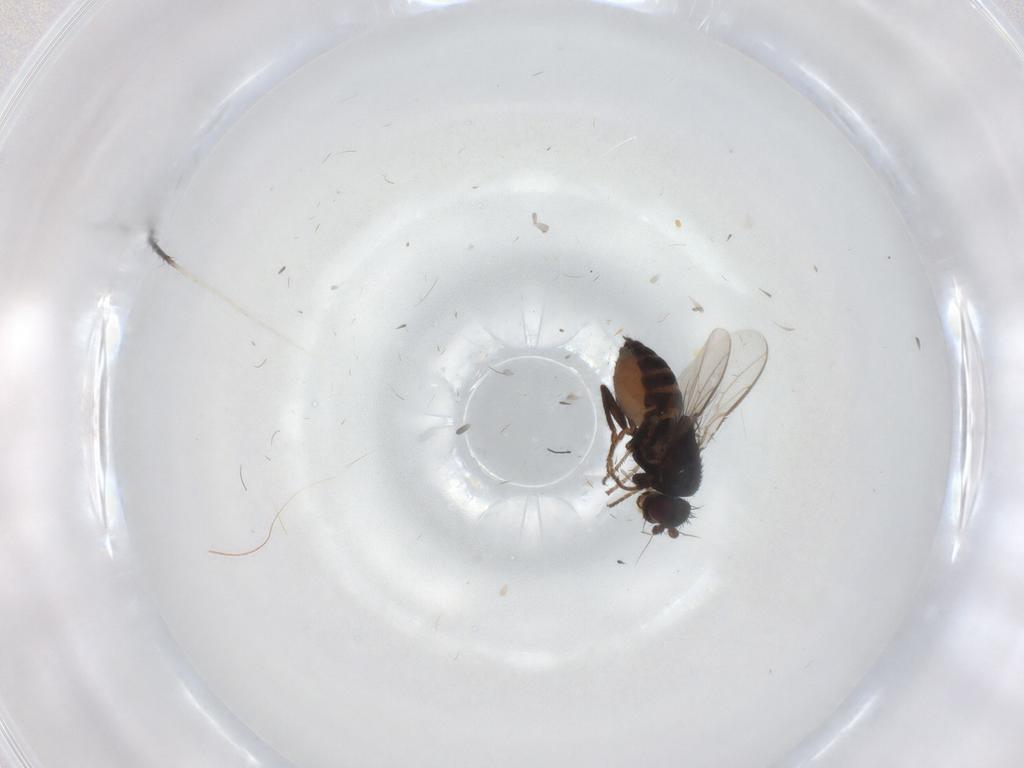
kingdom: Animalia
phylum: Arthropoda
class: Insecta
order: Diptera
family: Sphaeroceridae
